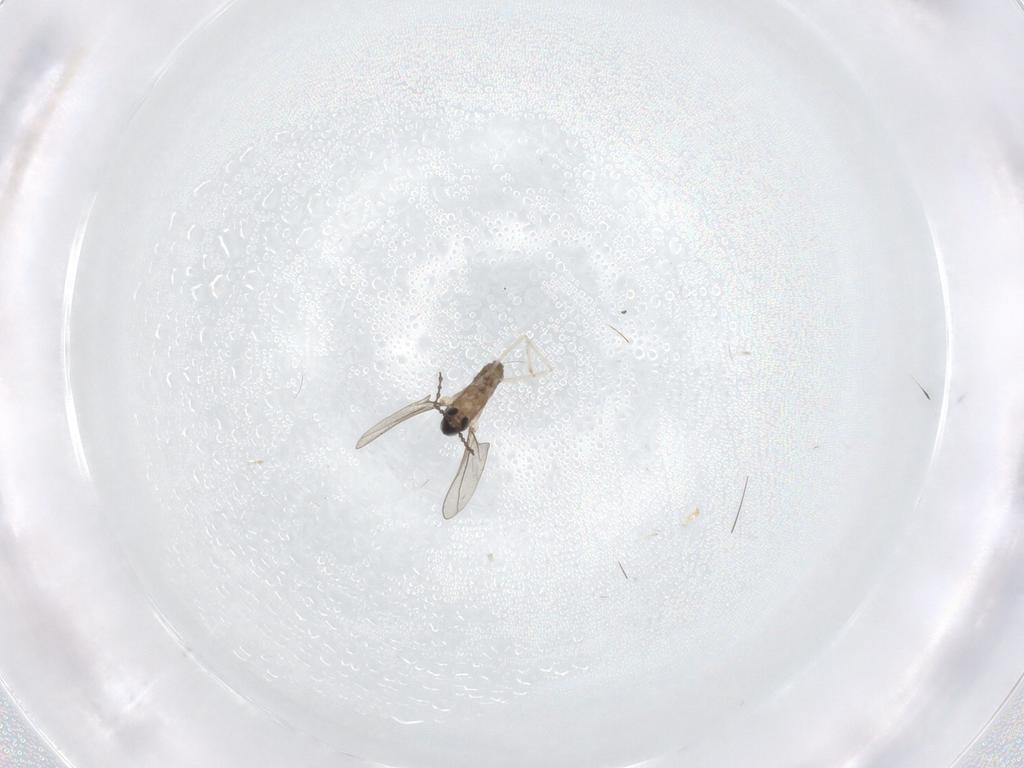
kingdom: Animalia
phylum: Arthropoda
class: Insecta
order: Diptera
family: Cecidomyiidae
